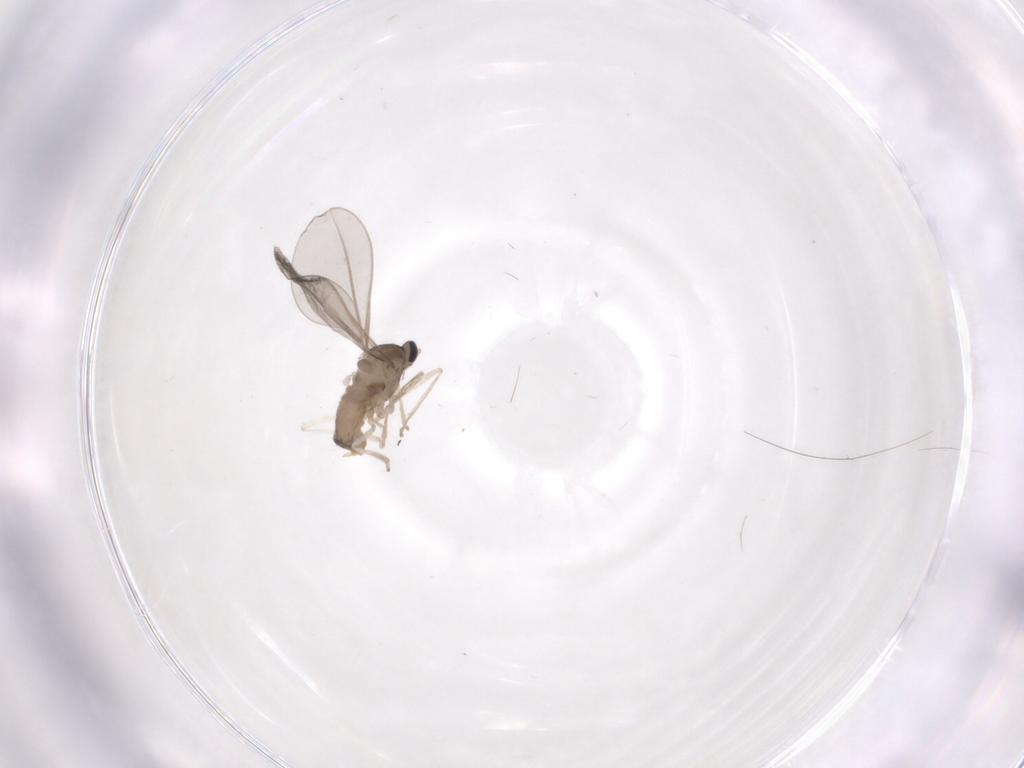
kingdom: Animalia
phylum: Arthropoda
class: Insecta
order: Diptera
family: Cecidomyiidae
